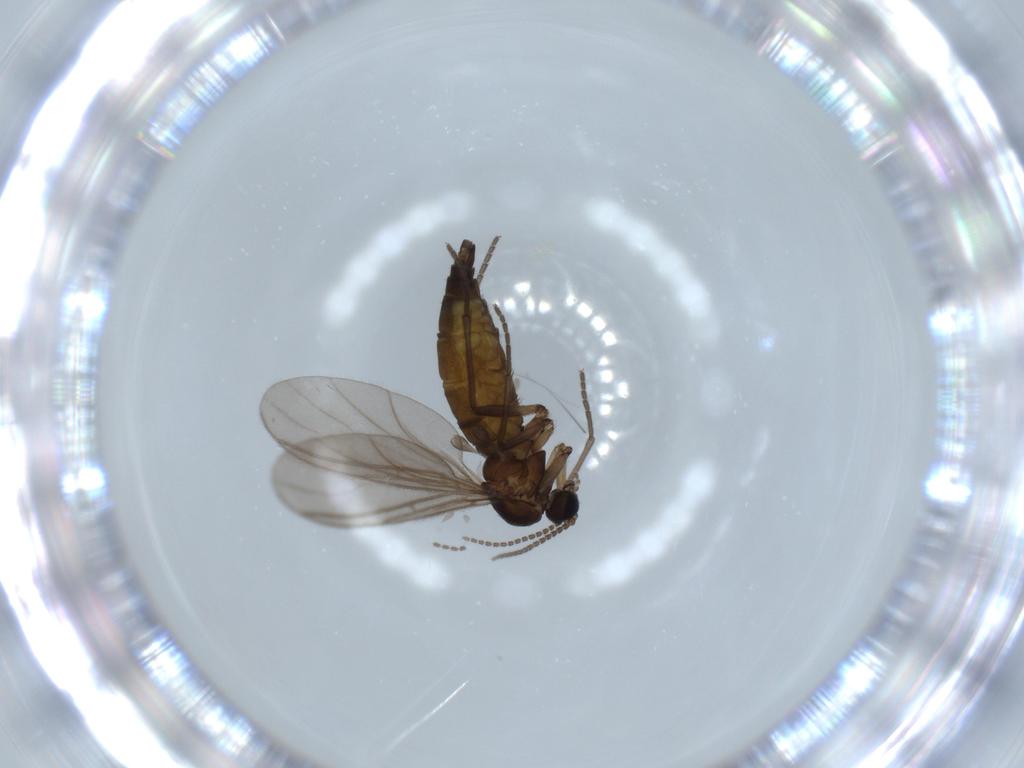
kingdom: Animalia
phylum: Arthropoda
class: Insecta
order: Diptera
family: Sciaridae
